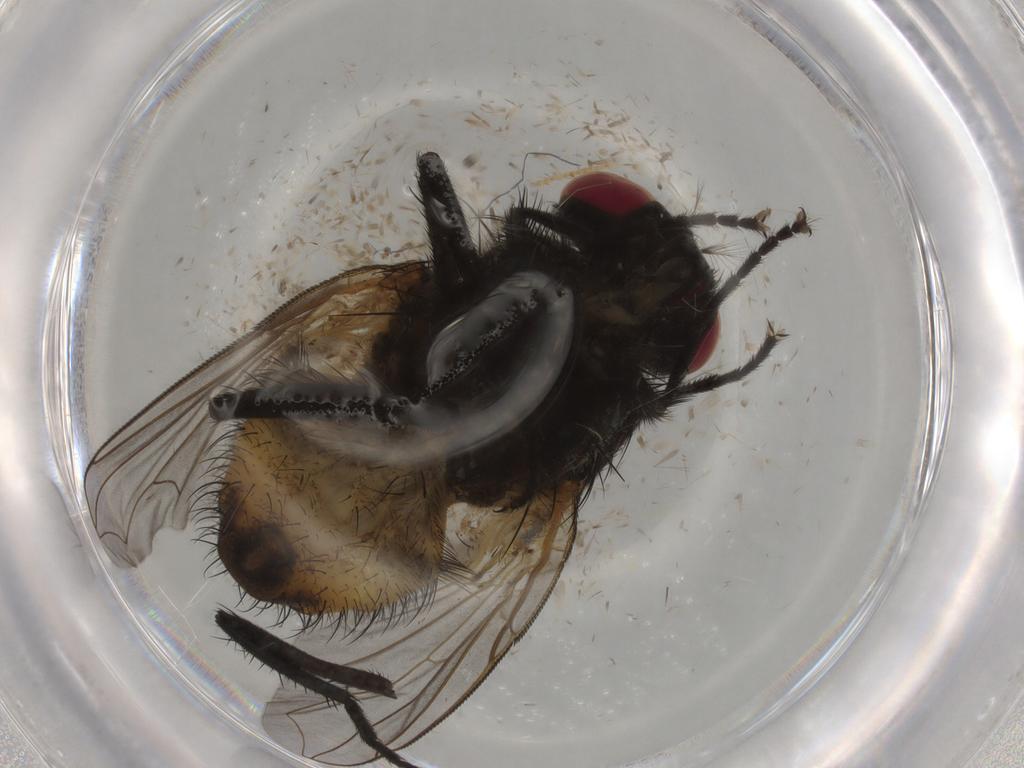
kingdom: Animalia
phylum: Arthropoda
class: Insecta
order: Diptera
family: Muscidae
